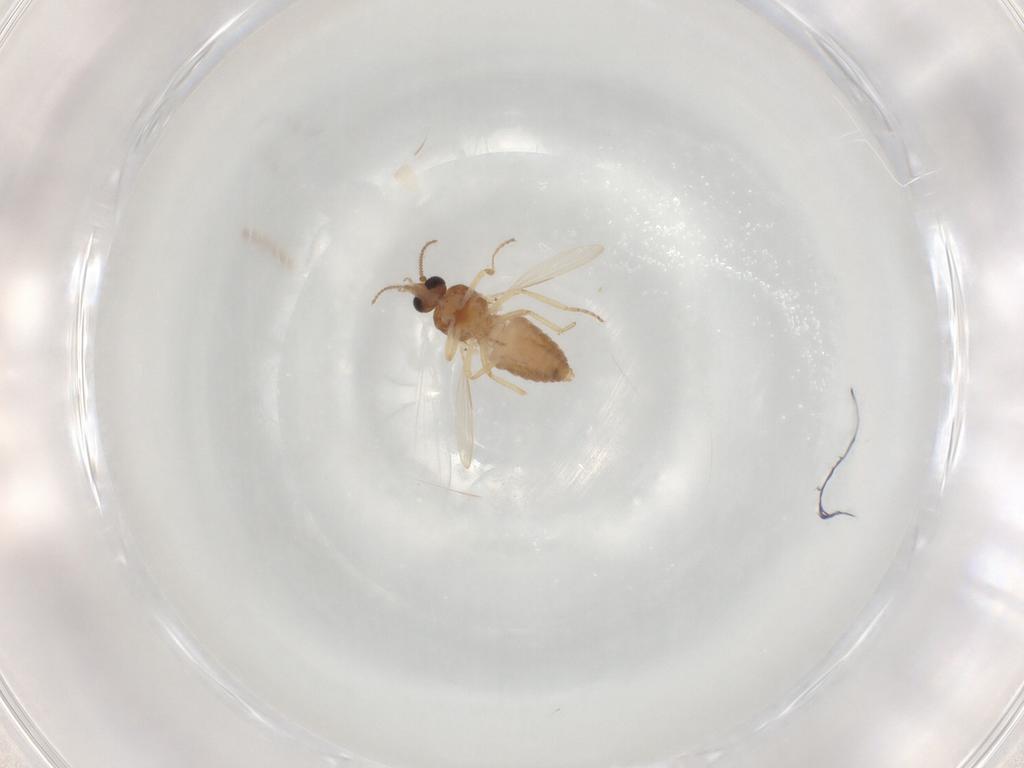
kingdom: Animalia
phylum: Arthropoda
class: Insecta
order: Diptera
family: Ceratopogonidae
